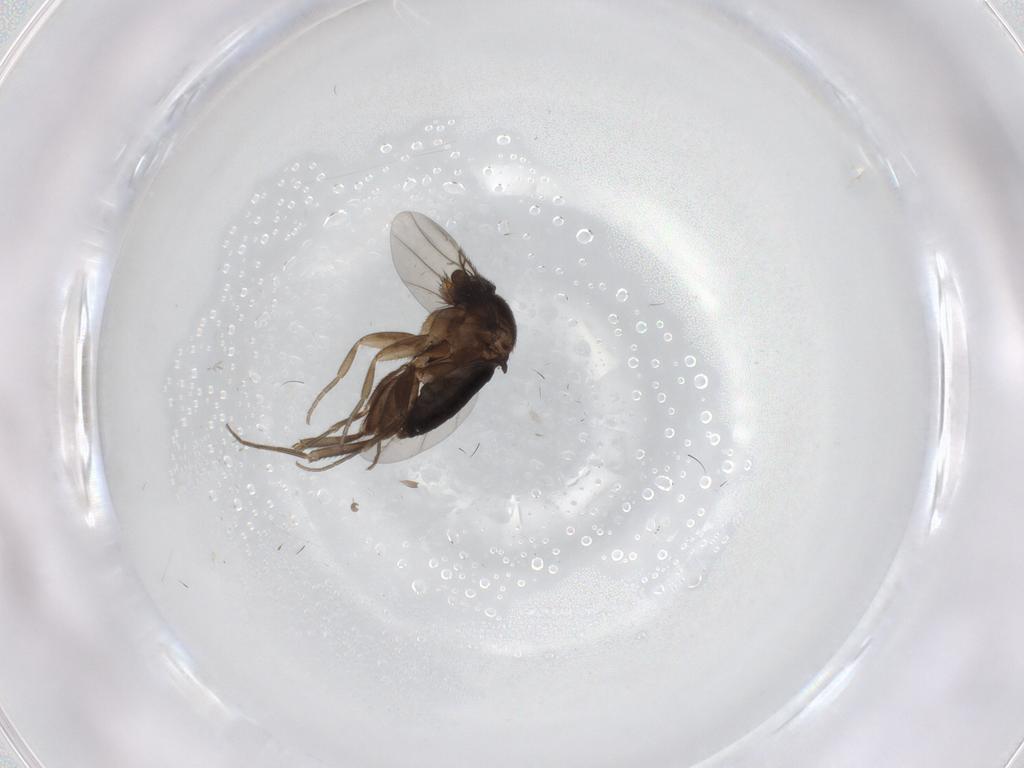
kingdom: Animalia
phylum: Arthropoda
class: Insecta
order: Diptera
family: Phoridae
